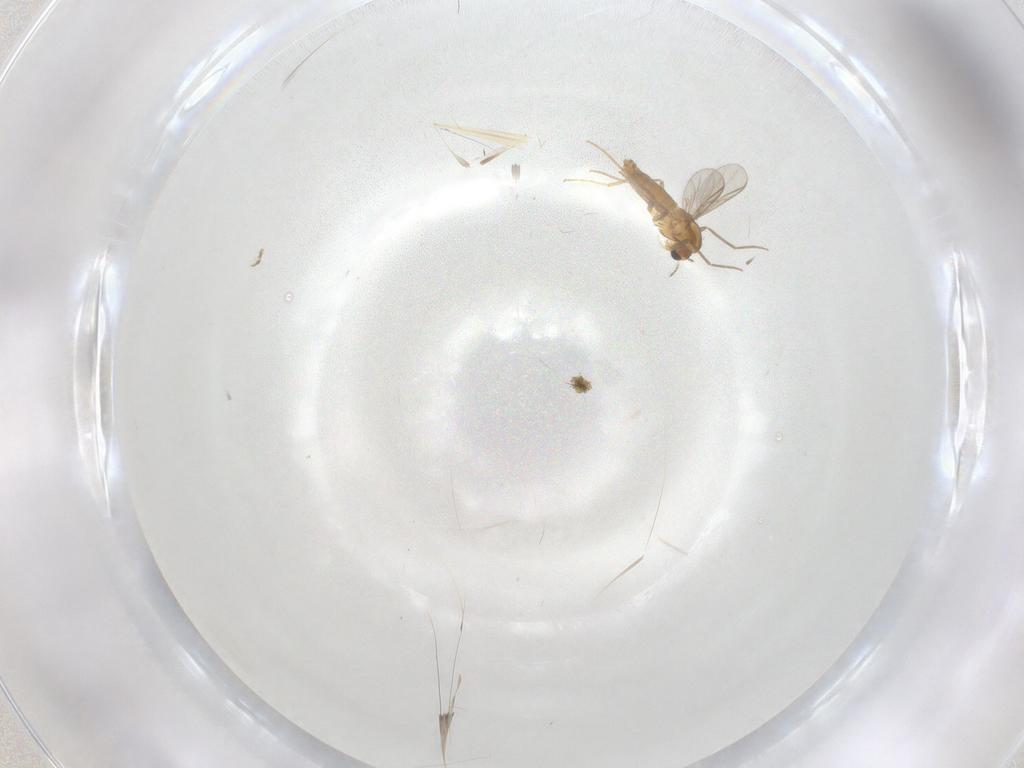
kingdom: Animalia
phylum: Arthropoda
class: Insecta
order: Diptera
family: Chironomidae
